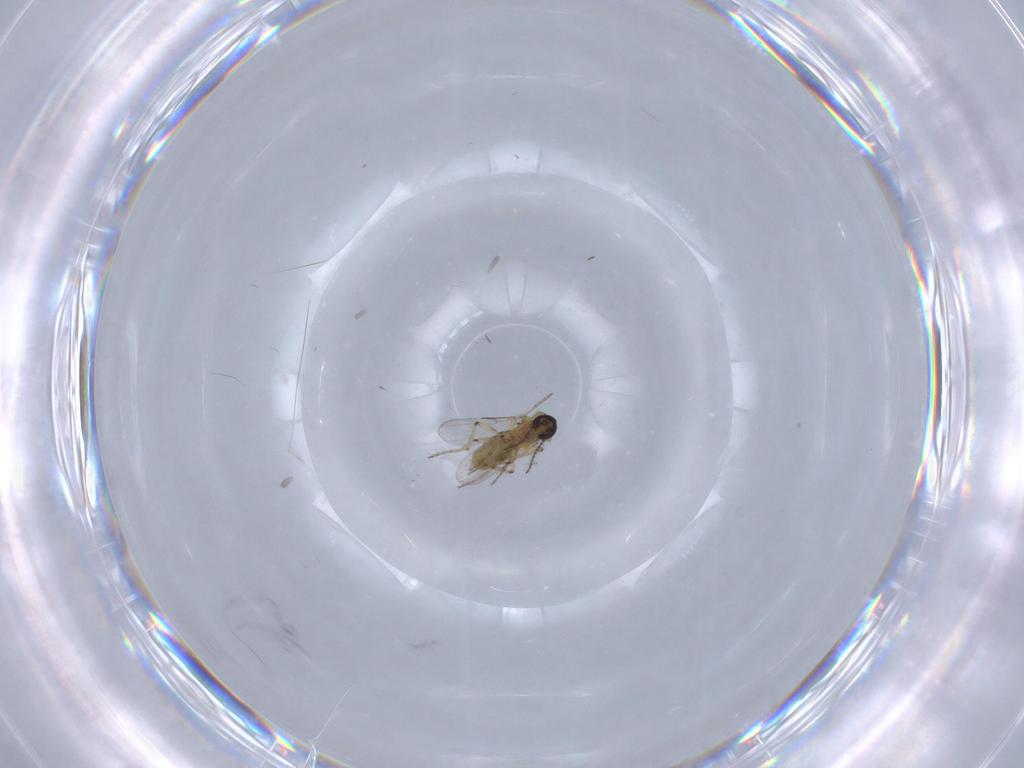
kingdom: Animalia
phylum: Arthropoda
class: Insecta
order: Diptera
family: Ceratopogonidae
